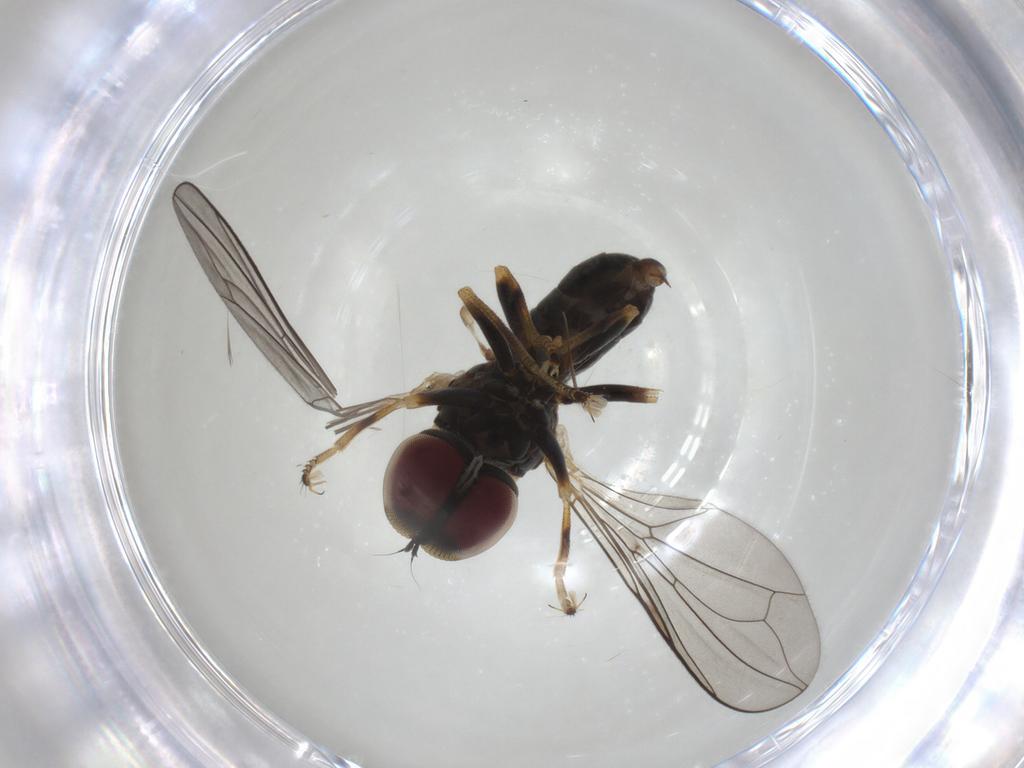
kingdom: Animalia
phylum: Arthropoda
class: Insecta
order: Diptera
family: Pipunculidae
